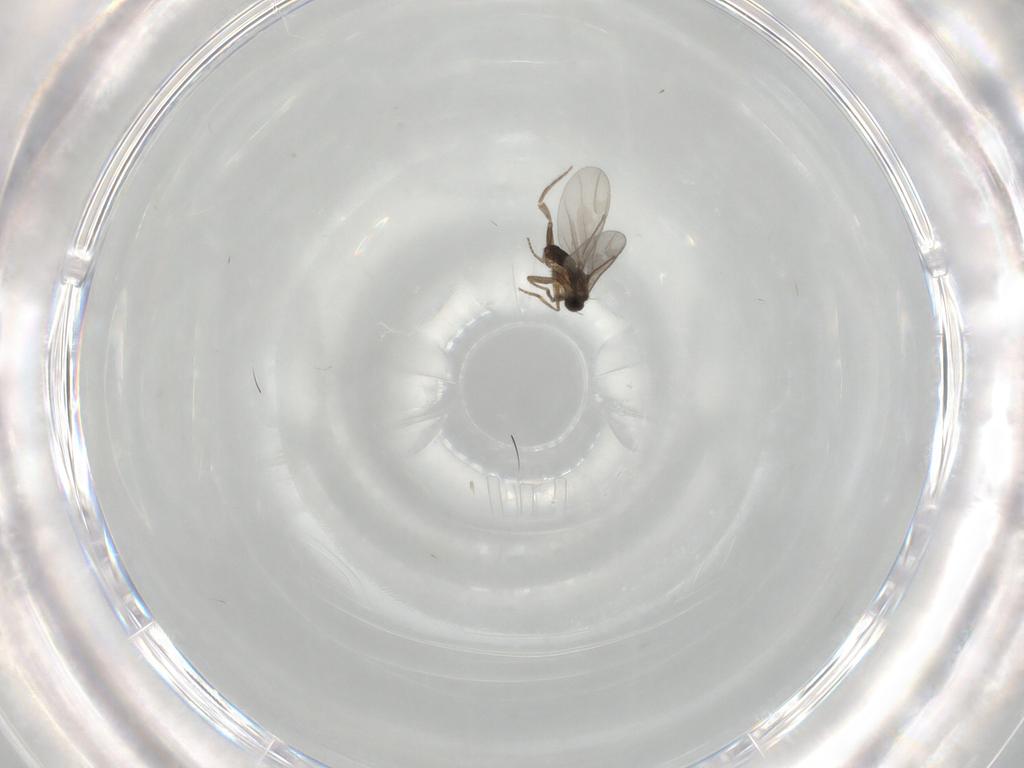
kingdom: Animalia
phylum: Arthropoda
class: Insecta
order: Diptera
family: Chironomidae
